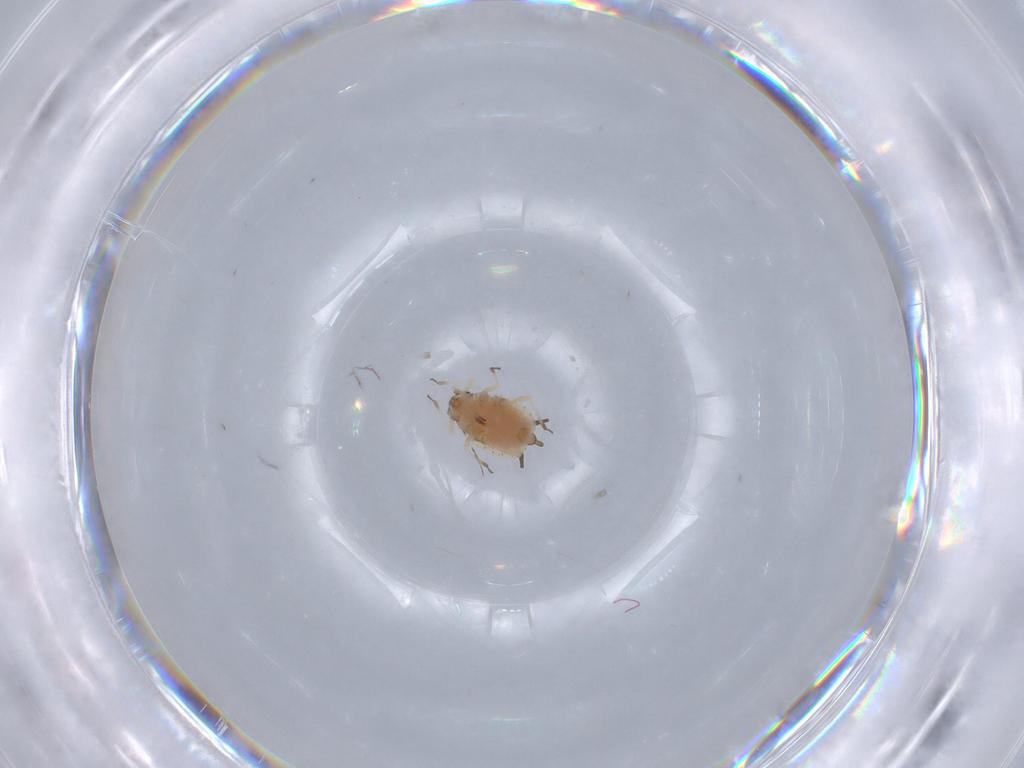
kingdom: Animalia
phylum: Arthropoda
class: Insecta
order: Hemiptera
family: Aphididae
